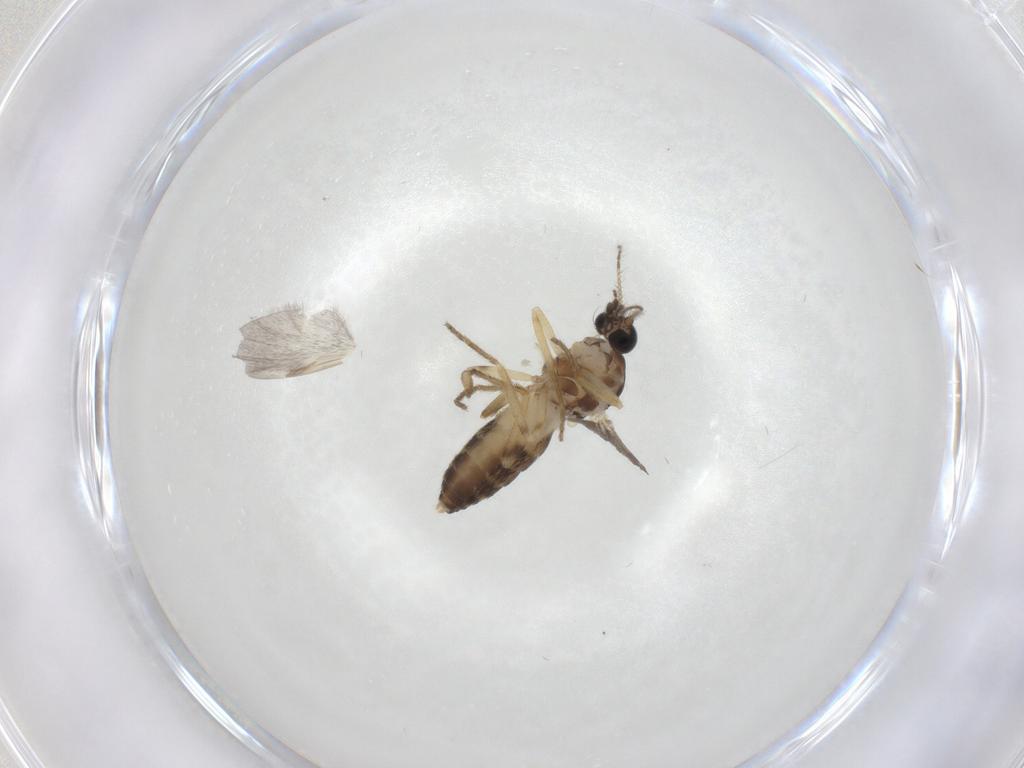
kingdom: Animalia
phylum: Arthropoda
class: Insecta
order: Diptera
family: Ceratopogonidae
